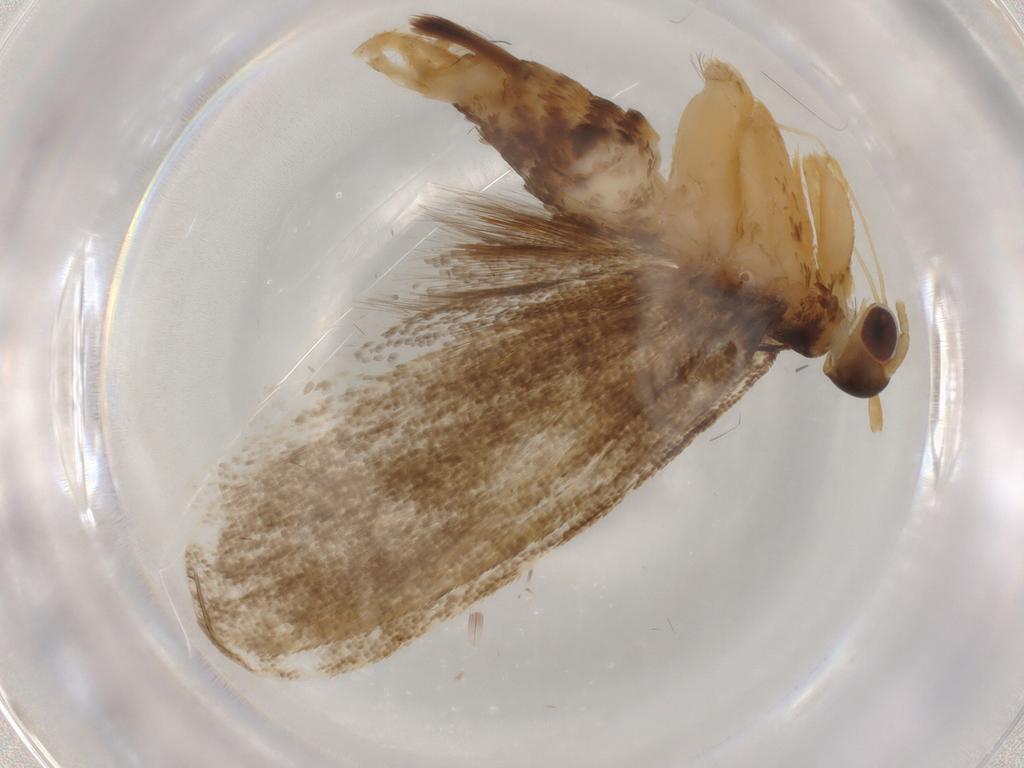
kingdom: Animalia
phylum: Arthropoda
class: Insecta
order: Lepidoptera
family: Lecithoceridae
